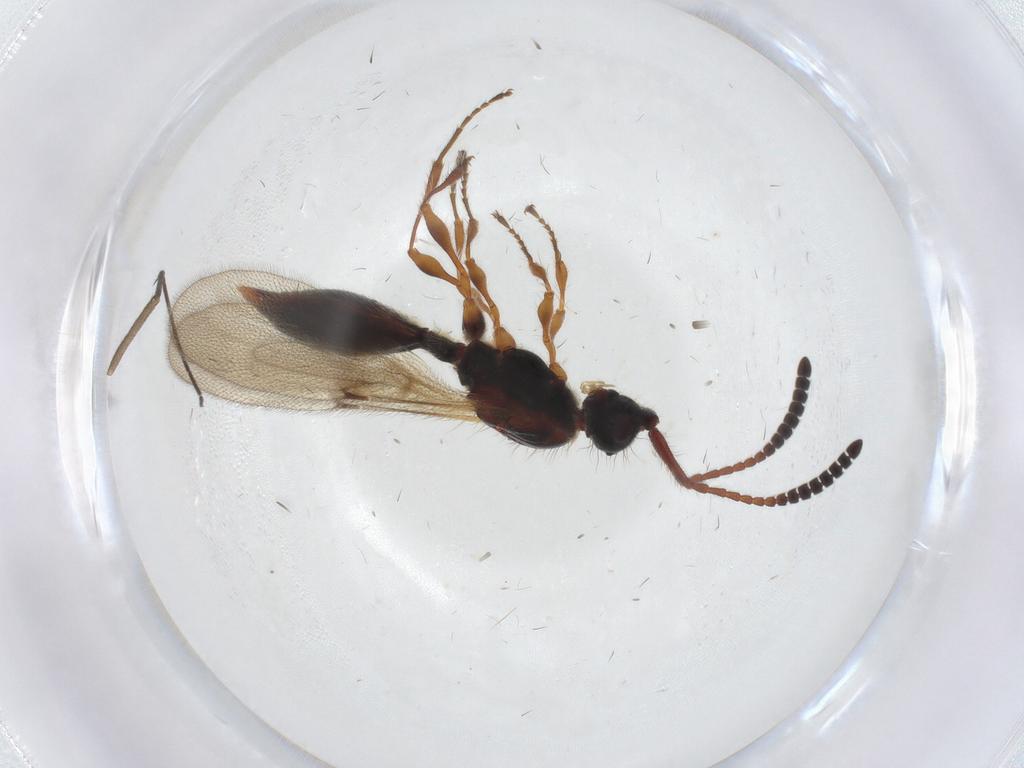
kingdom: Animalia
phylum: Arthropoda
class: Insecta
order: Hymenoptera
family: Diapriidae
